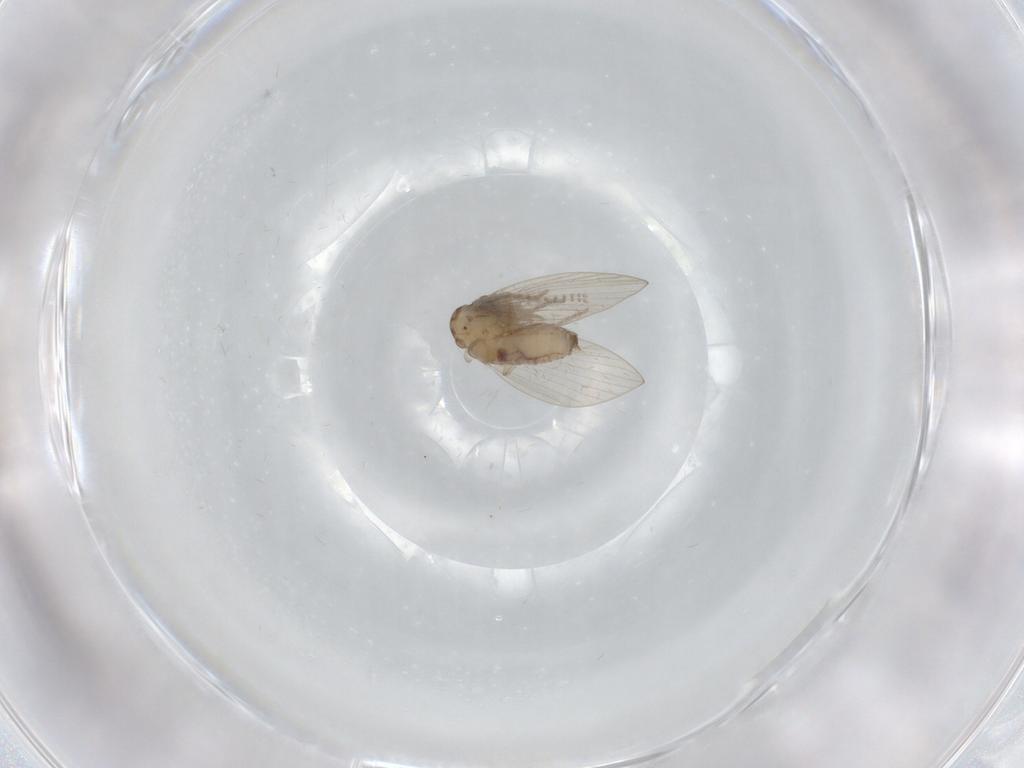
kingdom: Animalia
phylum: Arthropoda
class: Insecta
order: Diptera
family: Psychodidae
